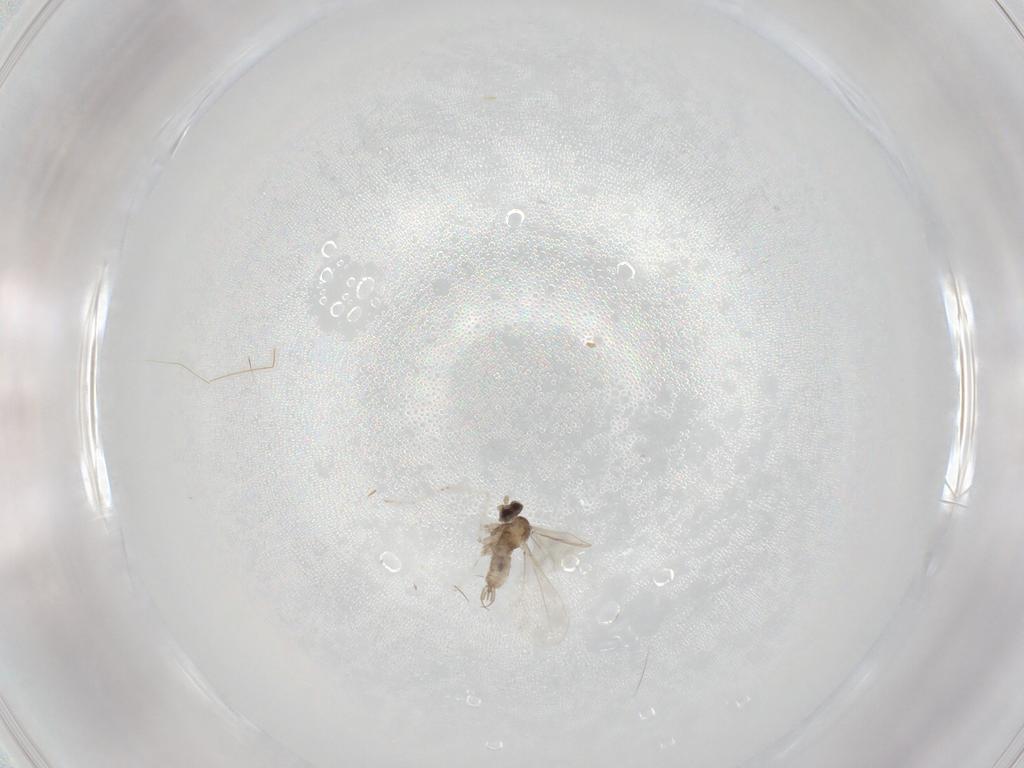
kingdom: Animalia
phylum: Arthropoda
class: Insecta
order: Diptera
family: Cecidomyiidae
